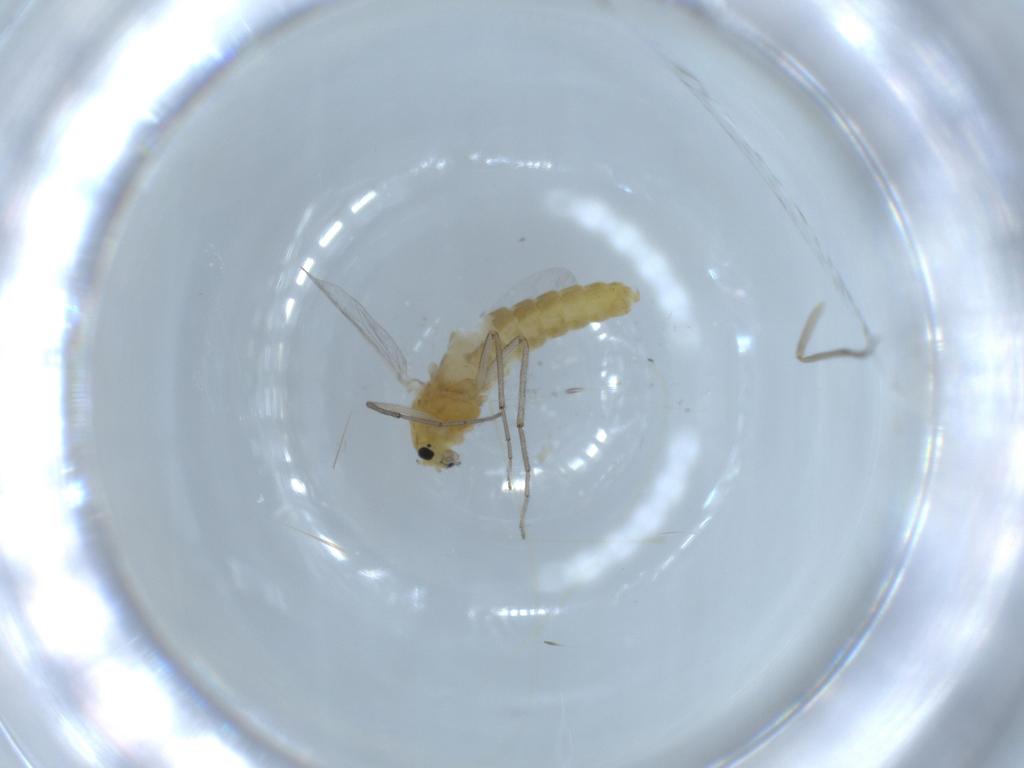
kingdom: Animalia
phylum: Arthropoda
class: Insecta
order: Diptera
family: Chironomidae
